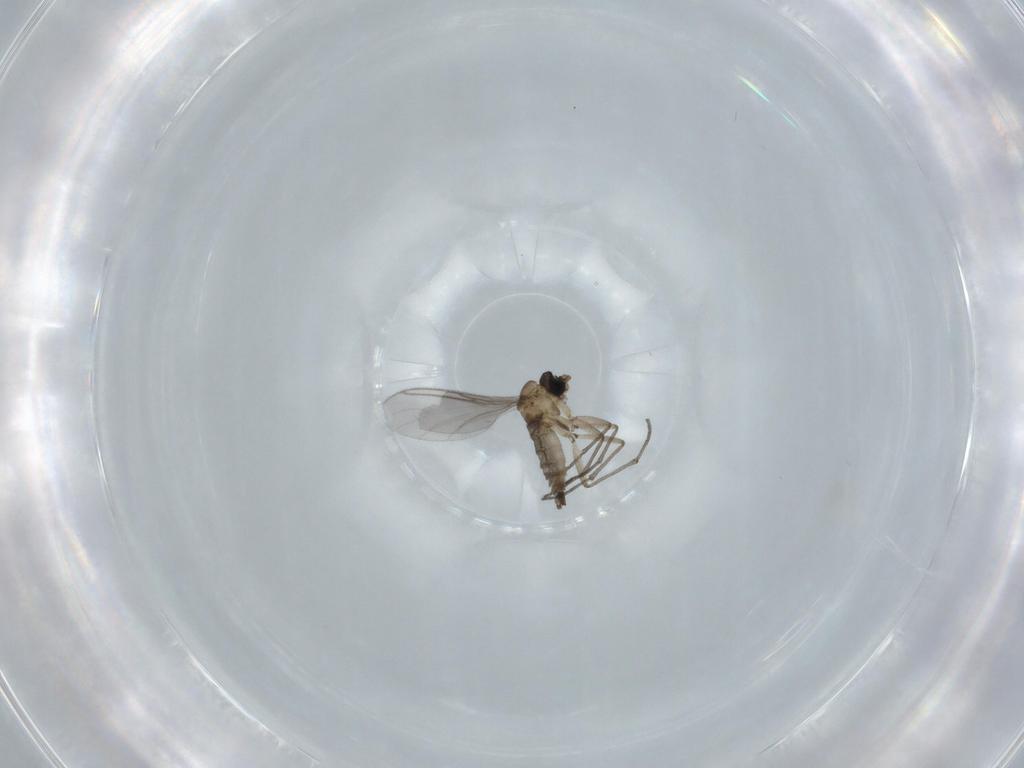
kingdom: Animalia
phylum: Arthropoda
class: Insecta
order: Diptera
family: Sciaridae
